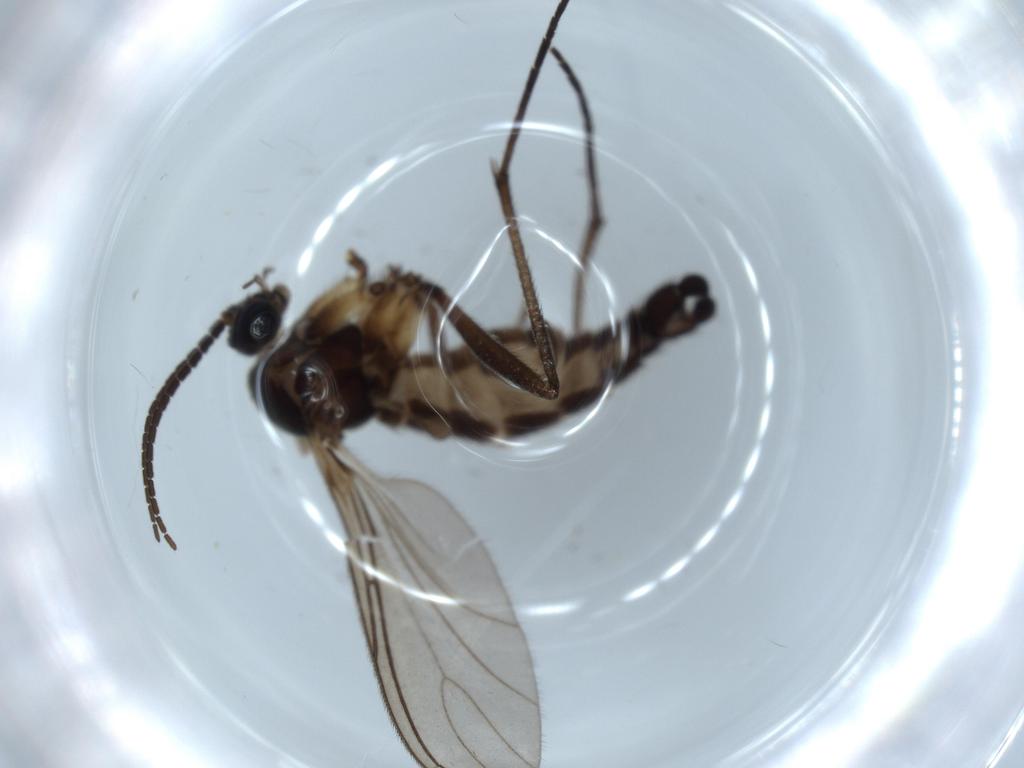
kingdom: Animalia
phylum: Arthropoda
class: Insecta
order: Diptera
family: Sciaridae
